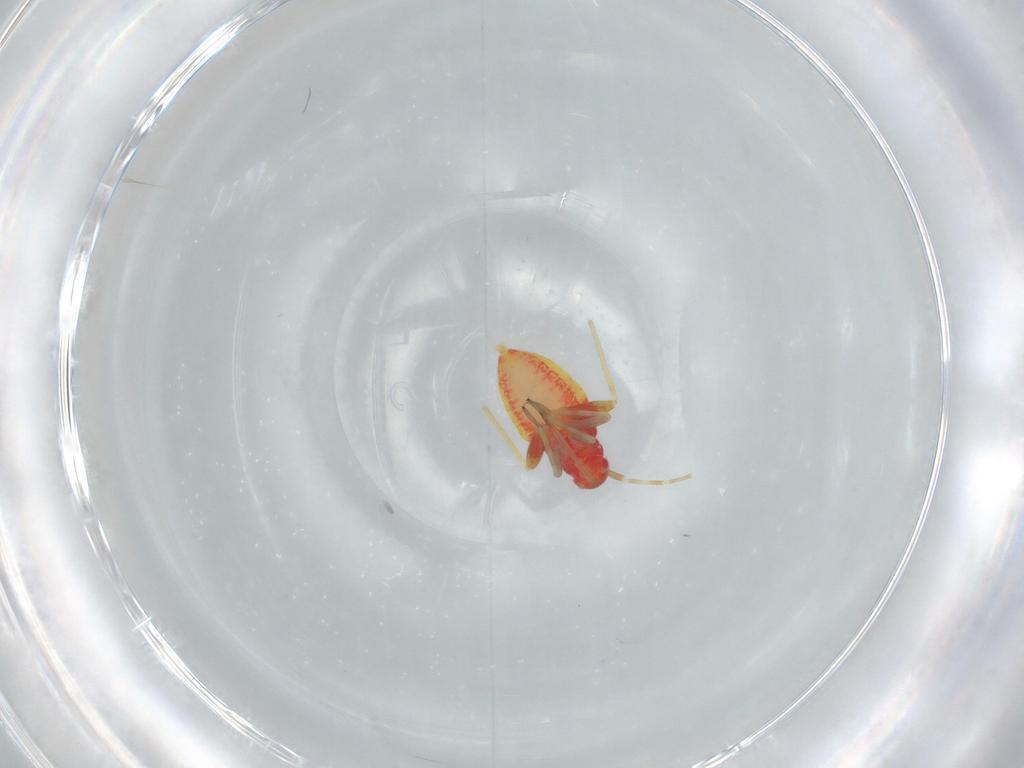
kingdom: Animalia
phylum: Arthropoda
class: Insecta
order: Hemiptera
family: Miridae
